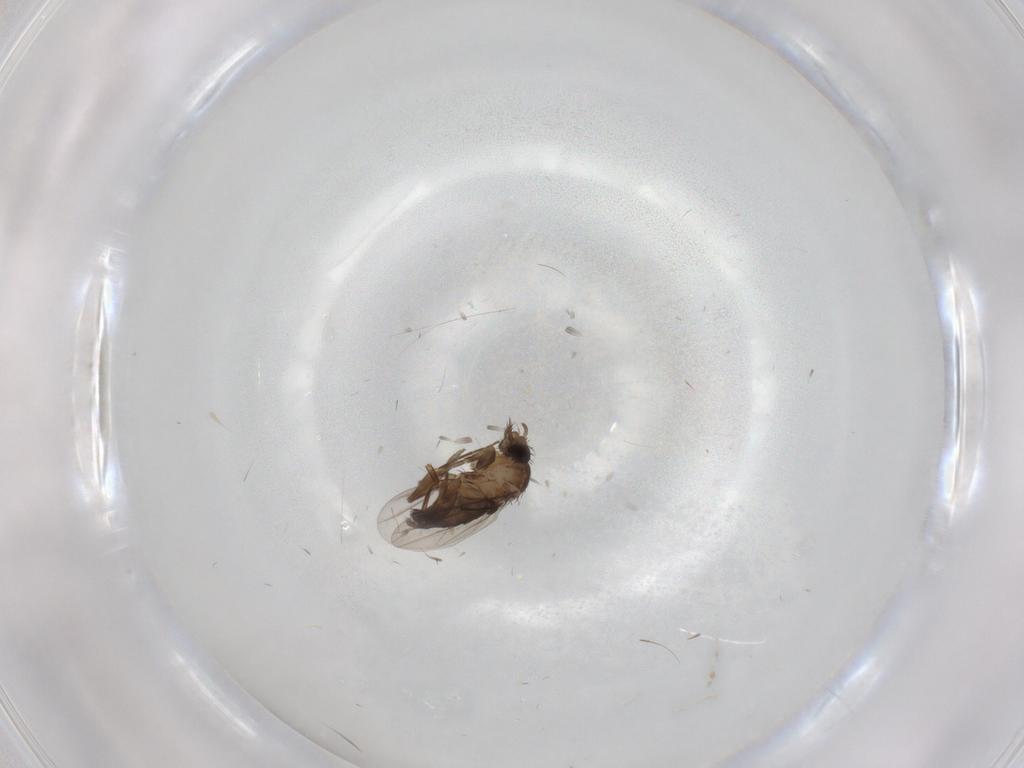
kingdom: Animalia
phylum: Arthropoda
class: Insecta
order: Diptera
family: Phoridae
